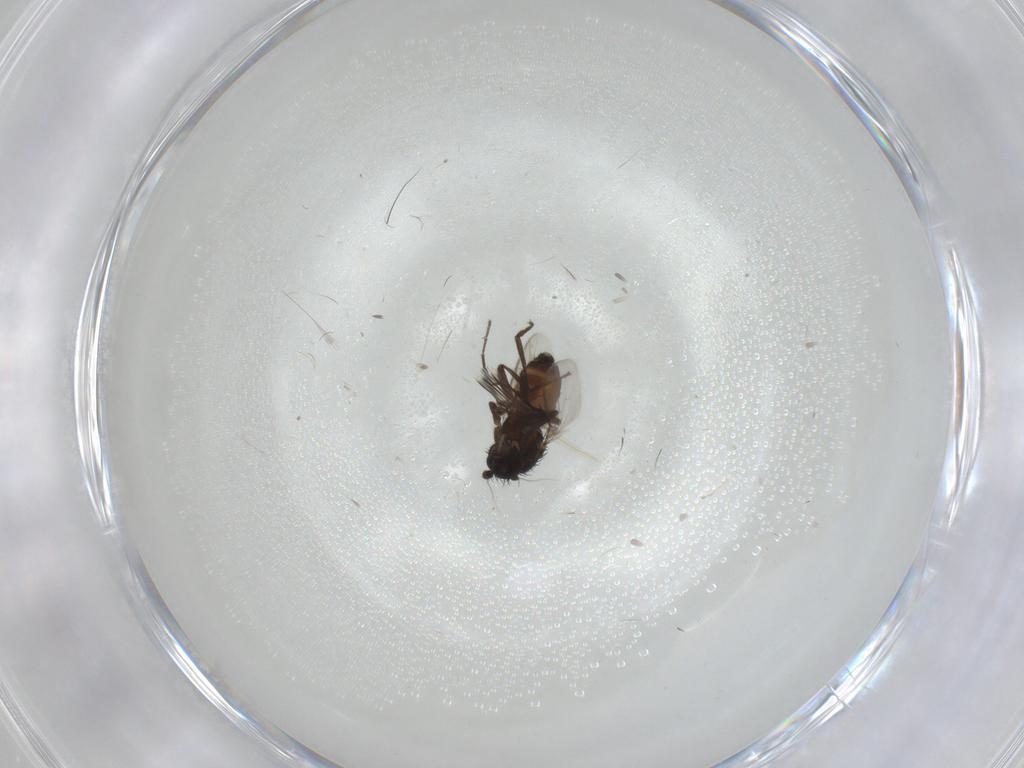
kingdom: Animalia
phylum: Arthropoda
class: Insecta
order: Diptera
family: Sphaeroceridae
